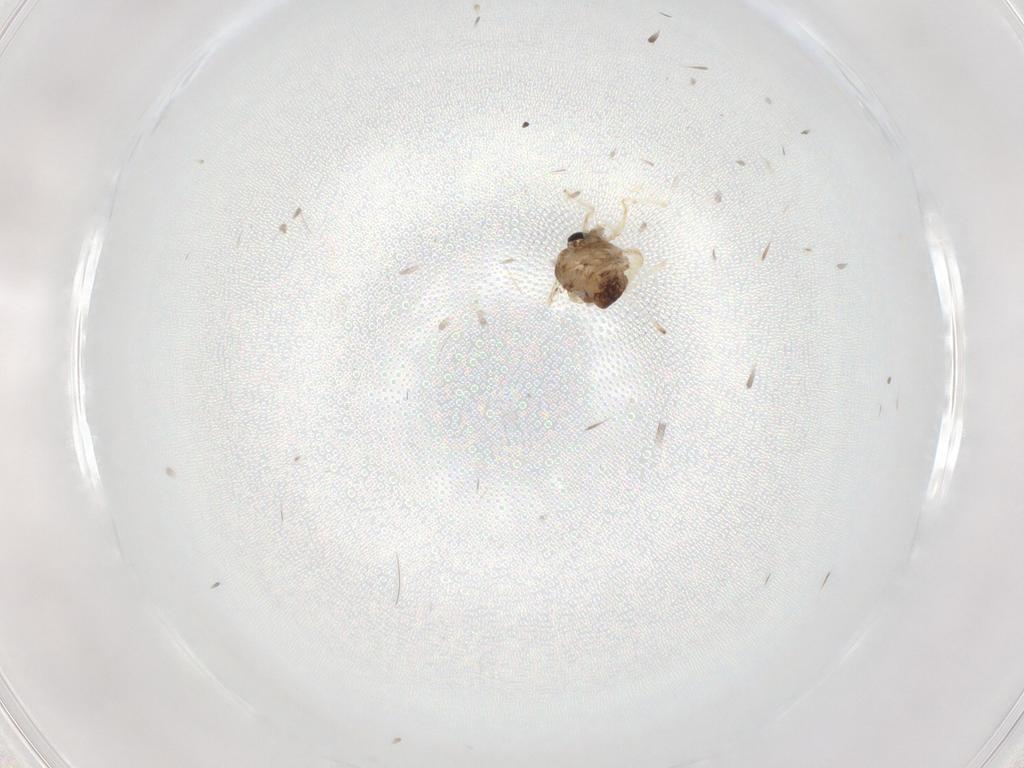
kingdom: Animalia
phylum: Arthropoda
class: Insecta
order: Diptera
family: Chironomidae
